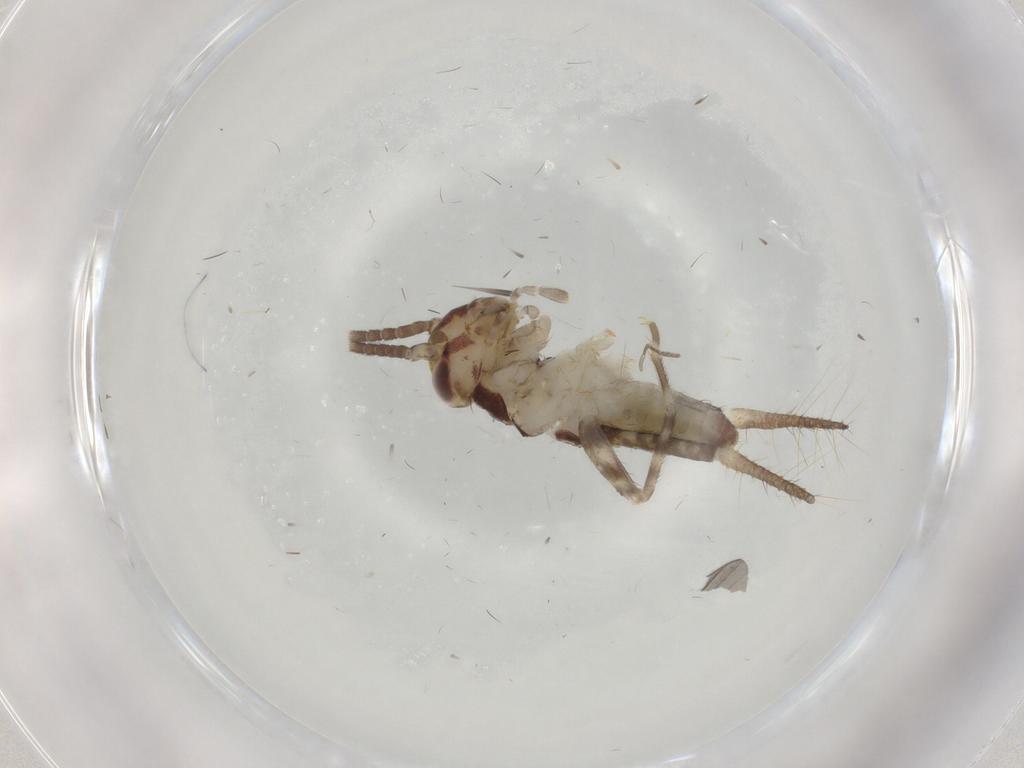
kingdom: Animalia
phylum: Arthropoda
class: Insecta
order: Orthoptera
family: Gryllidae
